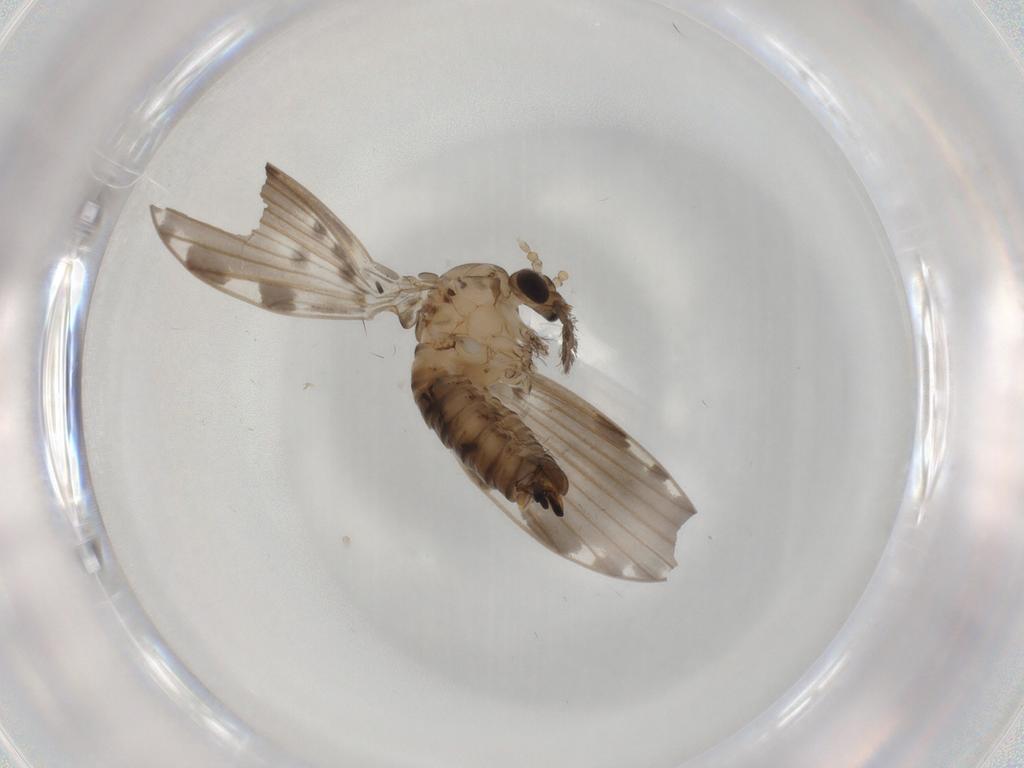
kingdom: Animalia
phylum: Arthropoda
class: Insecta
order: Diptera
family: Psychodidae
